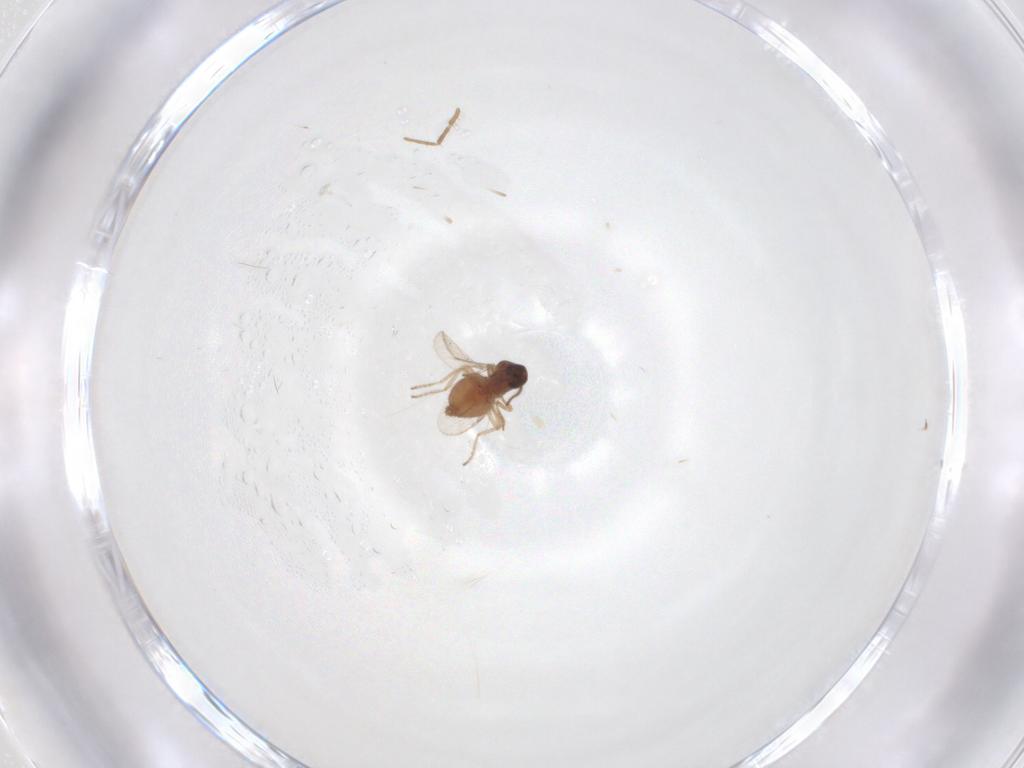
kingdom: Animalia
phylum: Arthropoda
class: Insecta
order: Diptera
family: Ceratopogonidae
